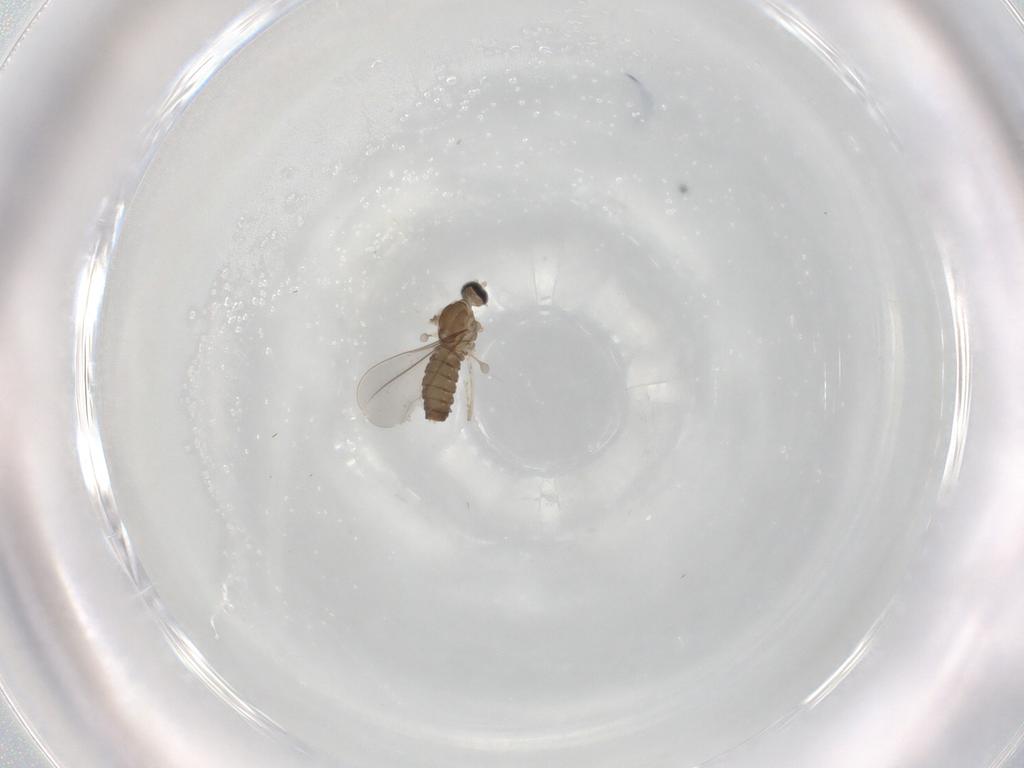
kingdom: Animalia
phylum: Arthropoda
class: Insecta
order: Diptera
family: Cecidomyiidae
